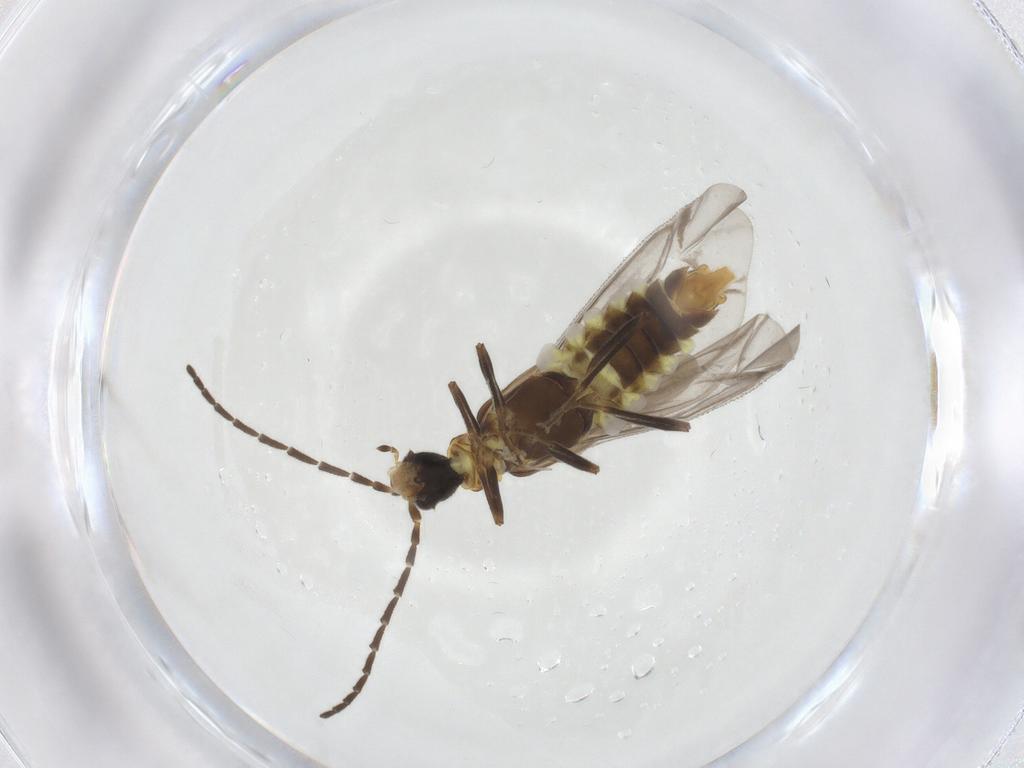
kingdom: Animalia
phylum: Arthropoda
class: Insecta
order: Coleoptera
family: Cantharidae
